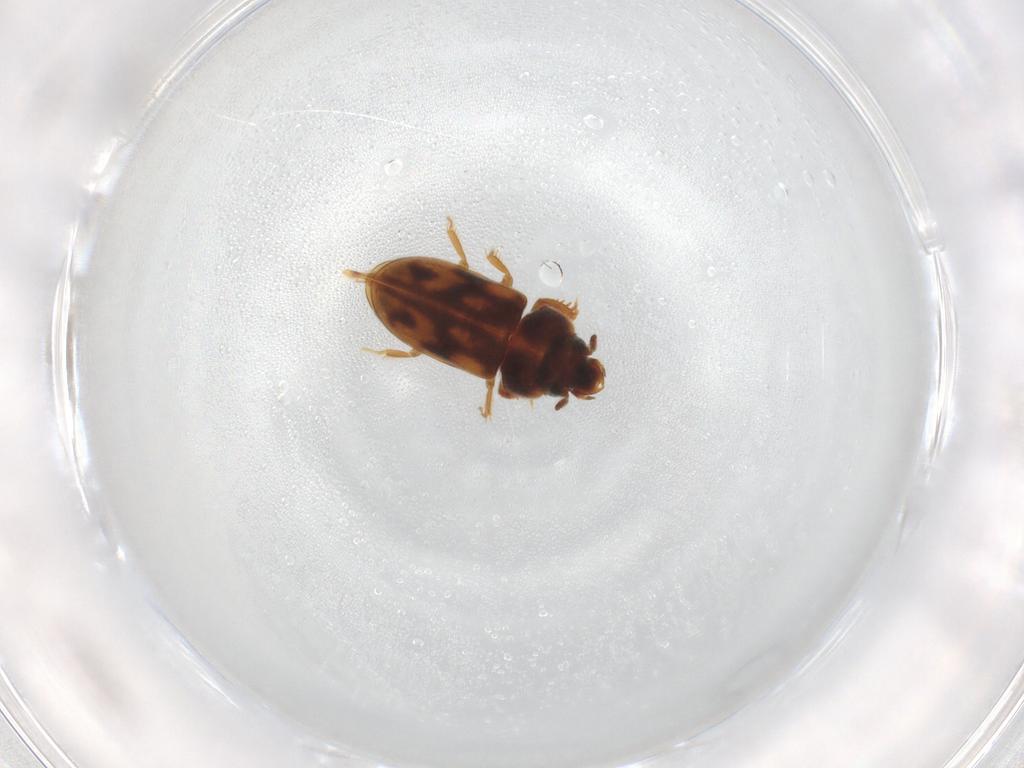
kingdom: Animalia
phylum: Arthropoda
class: Insecta
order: Coleoptera
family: Heteroceridae
